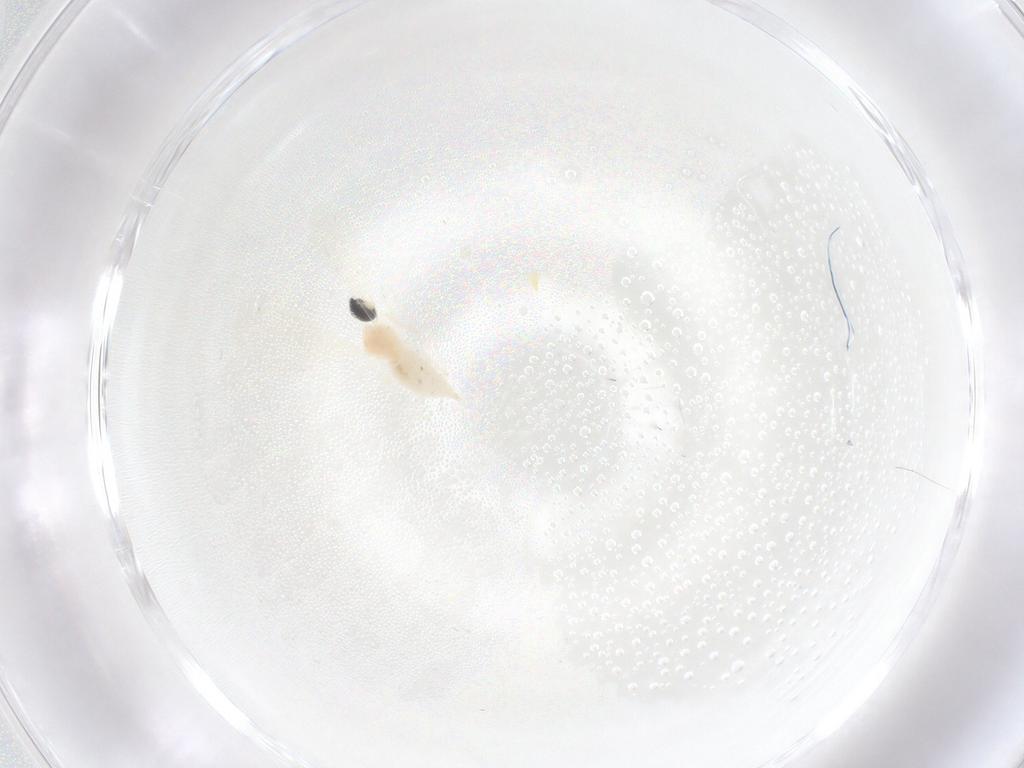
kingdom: Animalia
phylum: Arthropoda
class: Insecta
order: Diptera
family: Cecidomyiidae
